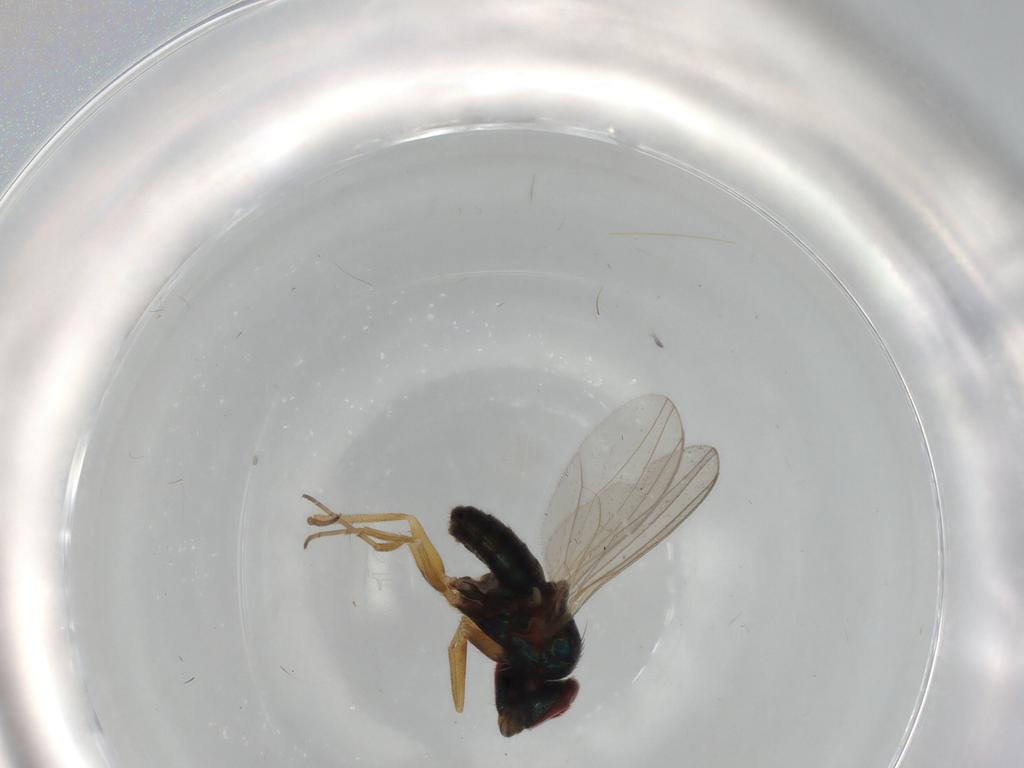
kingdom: Animalia
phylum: Arthropoda
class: Insecta
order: Diptera
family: Sciaridae
